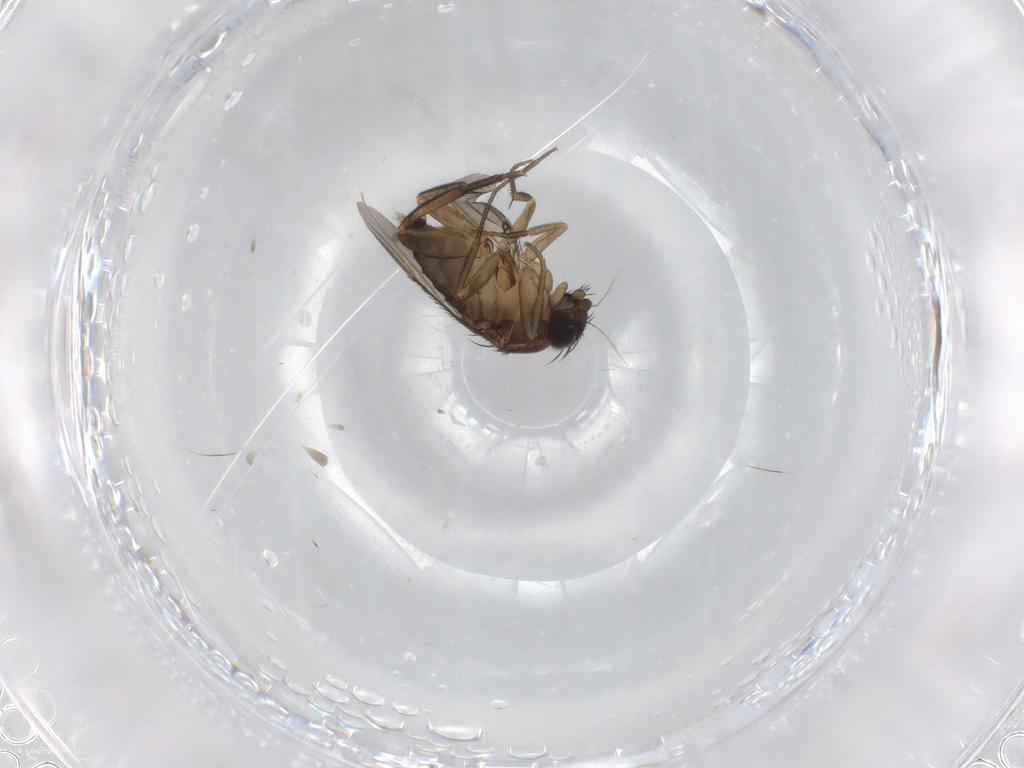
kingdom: Animalia
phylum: Arthropoda
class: Insecta
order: Diptera
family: Phoridae
